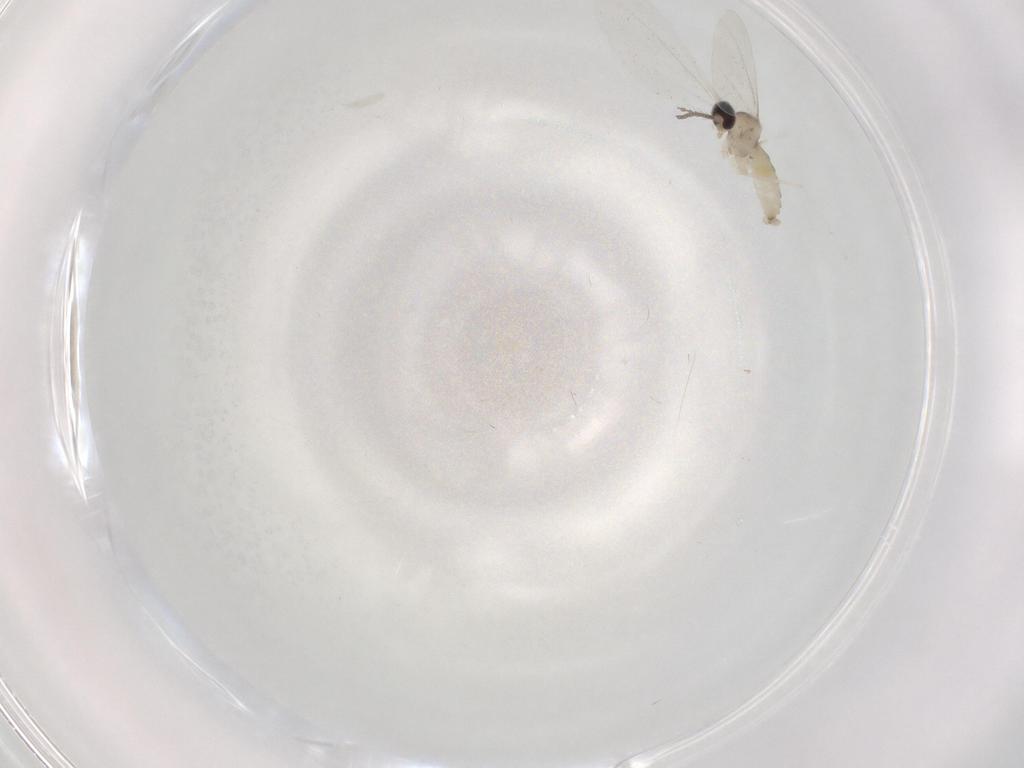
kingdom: Animalia
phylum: Arthropoda
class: Insecta
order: Diptera
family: Cecidomyiidae
